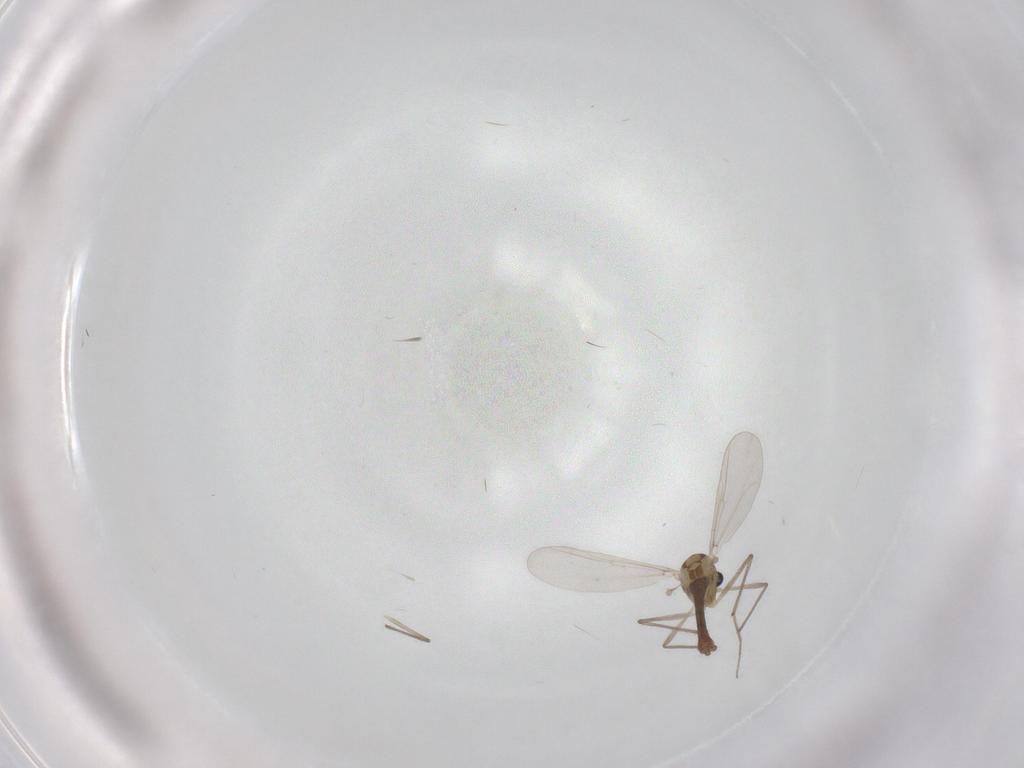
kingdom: Animalia
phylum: Arthropoda
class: Insecta
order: Diptera
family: Chironomidae
